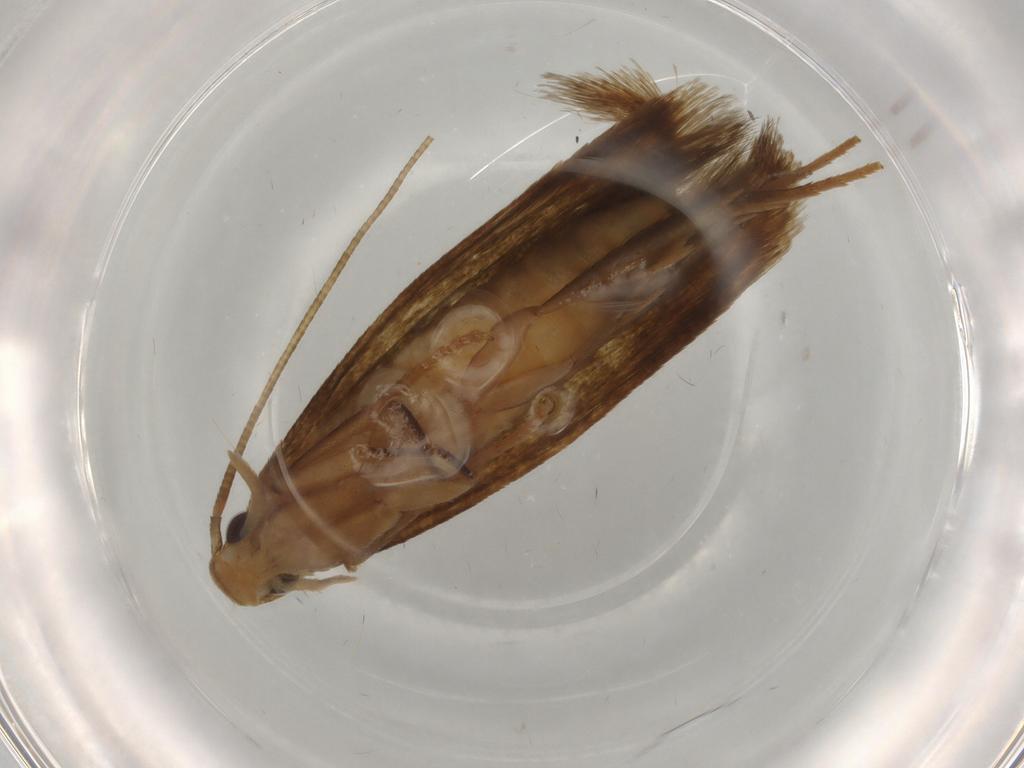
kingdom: Animalia
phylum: Arthropoda
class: Insecta
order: Lepidoptera
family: Tineidae
